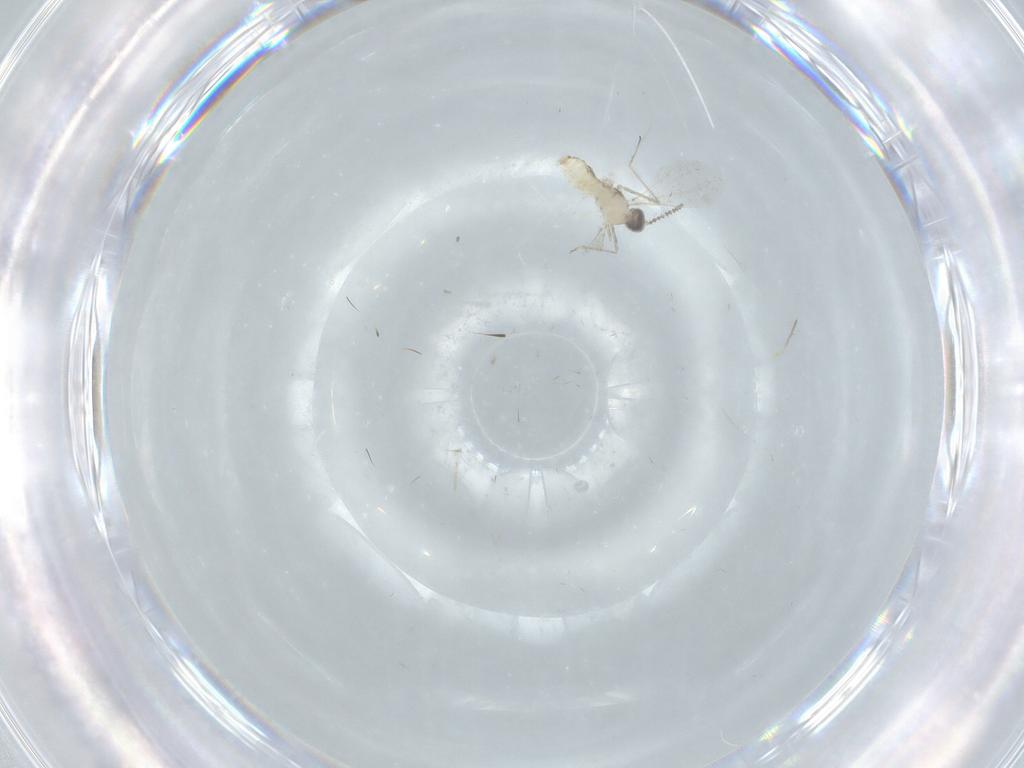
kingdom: Animalia
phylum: Arthropoda
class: Insecta
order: Diptera
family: Cecidomyiidae
